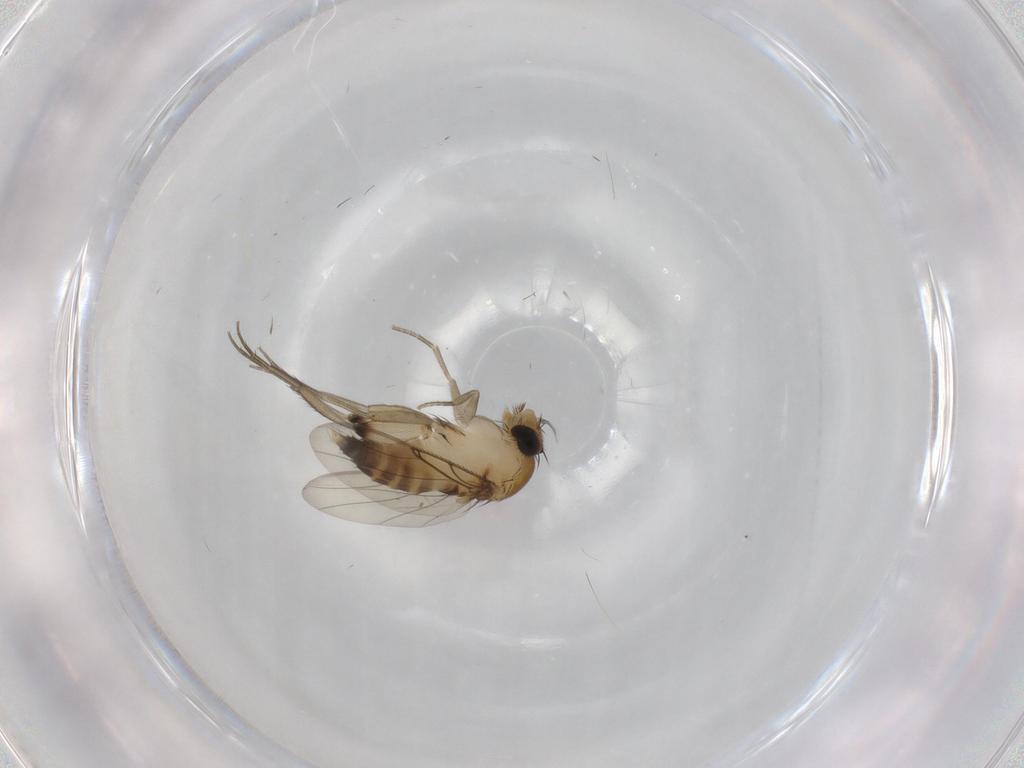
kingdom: Animalia
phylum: Arthropoda
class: Insecta
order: Diptera
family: Phoridae
